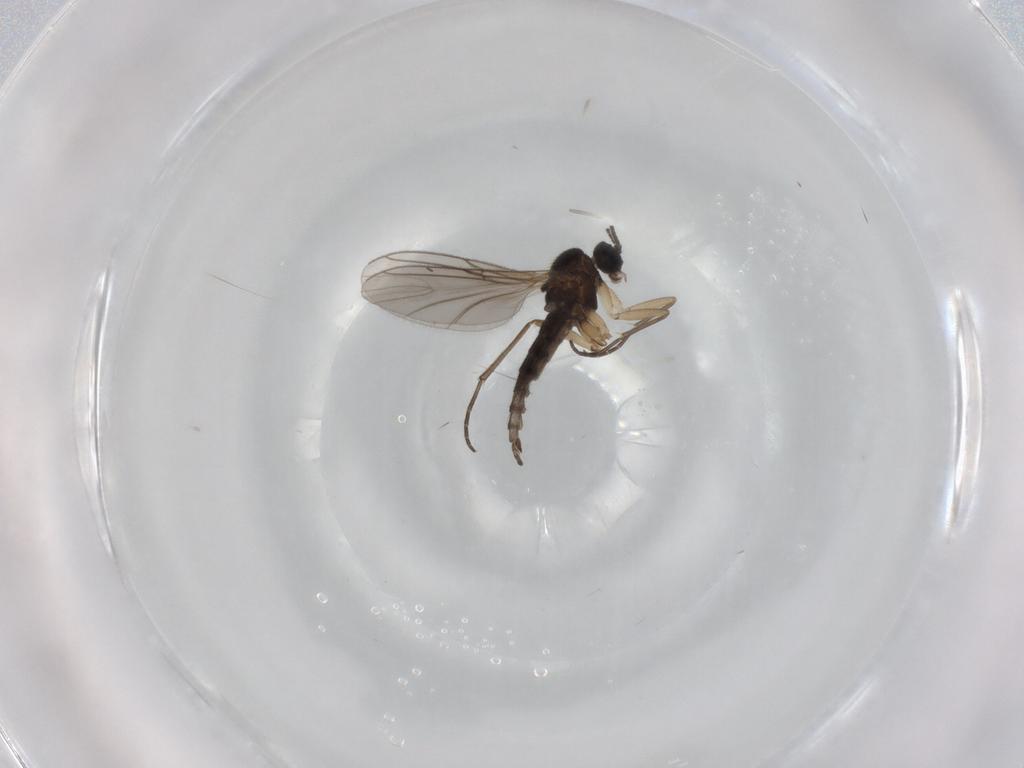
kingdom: Animalia
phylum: Arthropoda
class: Insecta
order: Diptera
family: Sciaridae
